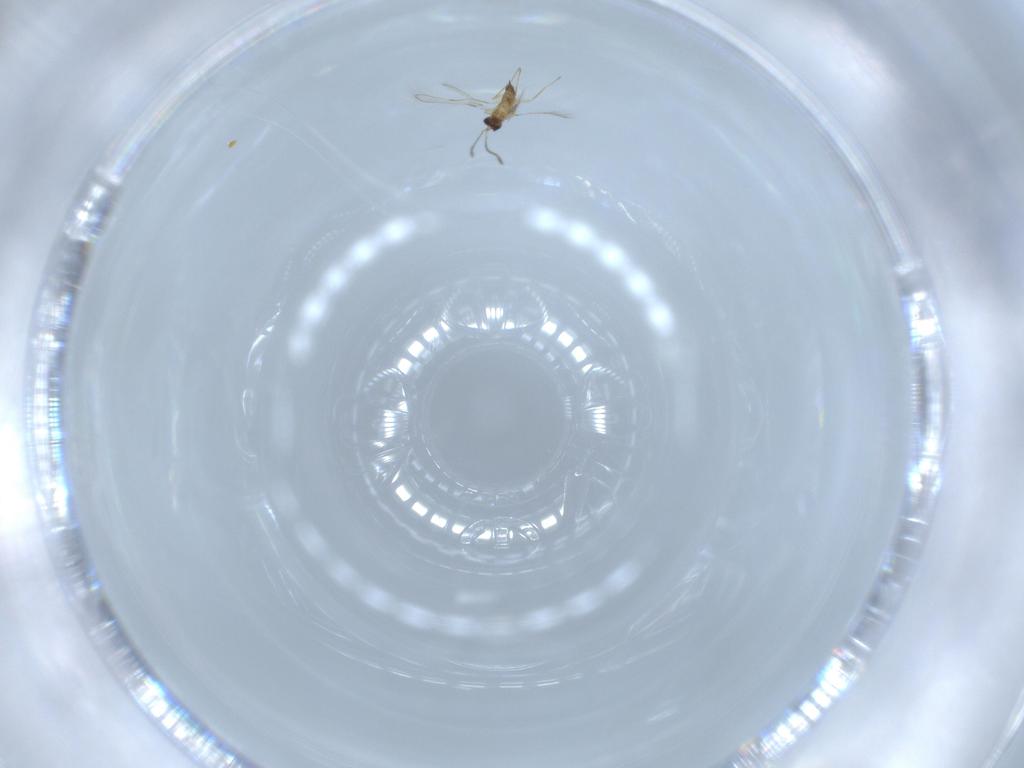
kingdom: Animalia
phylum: Arthropoda
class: Insecta
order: Hymenoptera
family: Mymaridae
